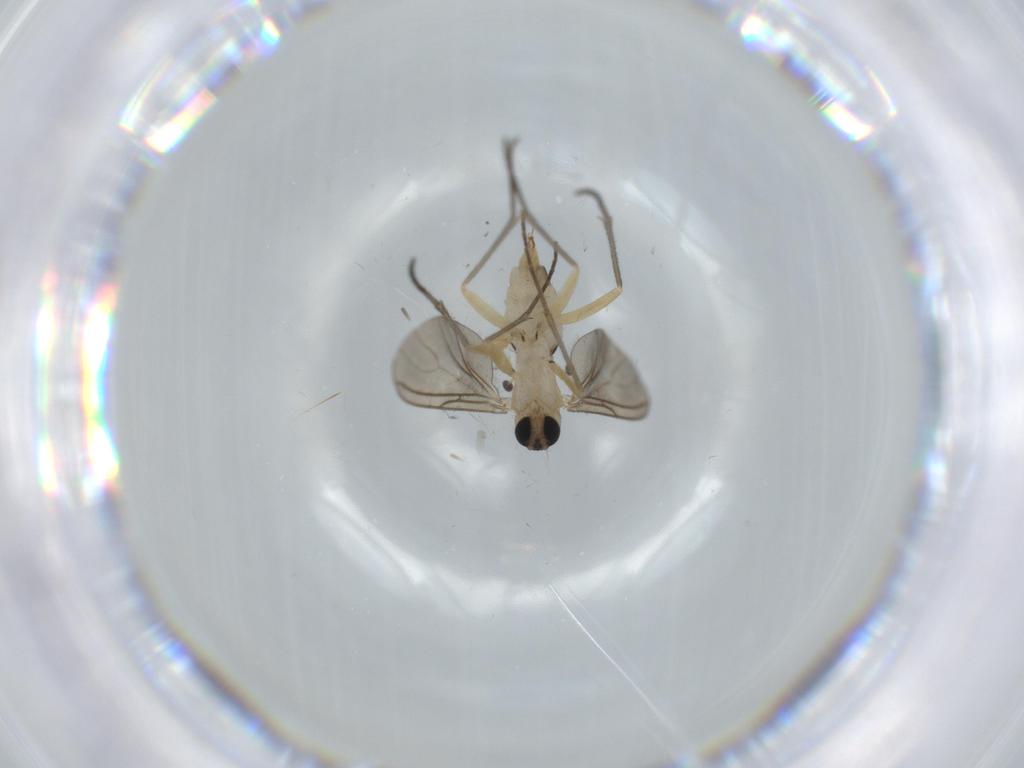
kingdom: Animalia
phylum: Arthropoda
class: Insecta
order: Diptera
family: Sciaridae
